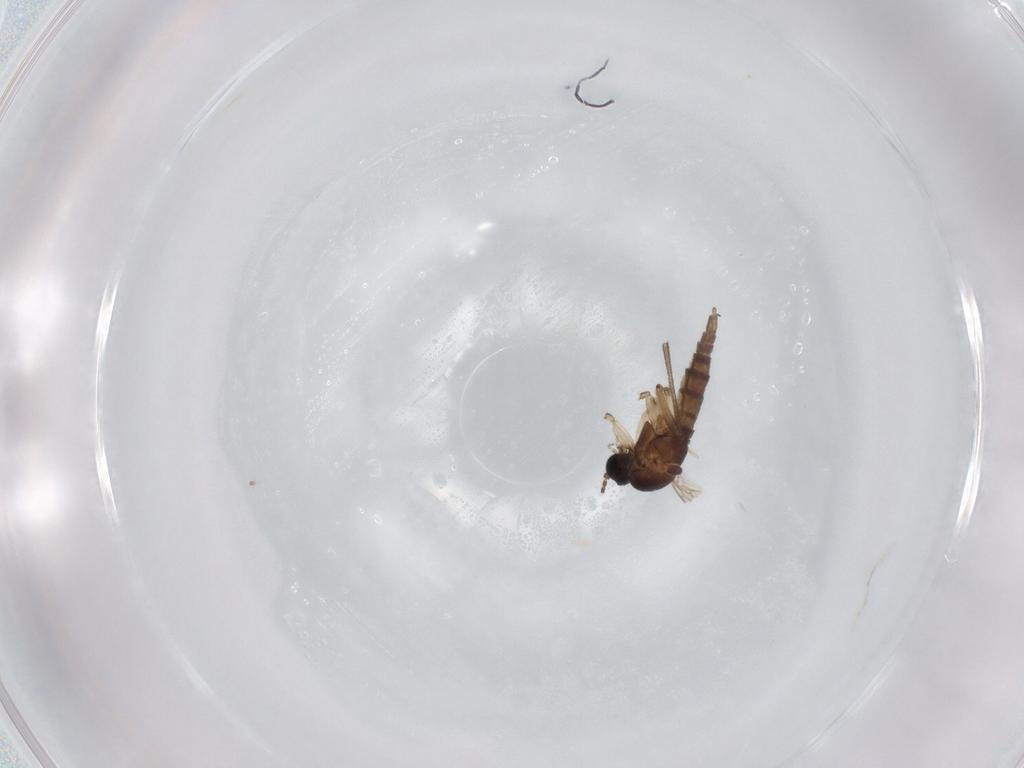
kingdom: Animalia
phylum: Arthropoda
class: Insecta
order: Diptera
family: Sciaridae
